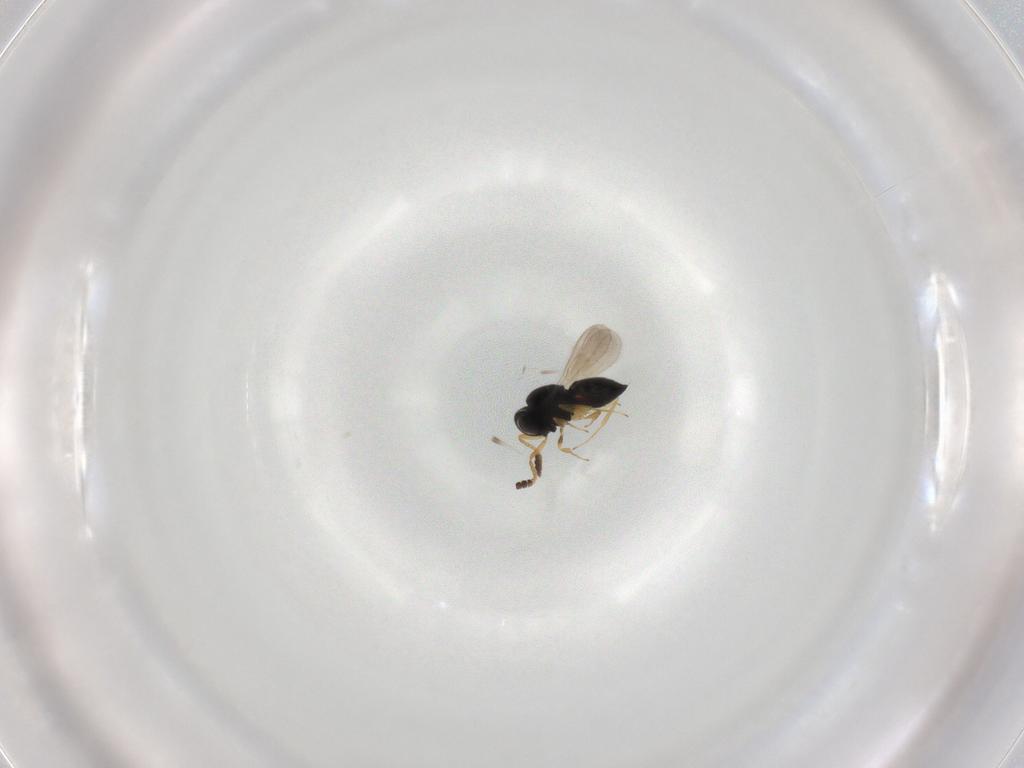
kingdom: Animalia
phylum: Arthropoda
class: Insecta
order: Hymenoptera
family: Scelionidae
